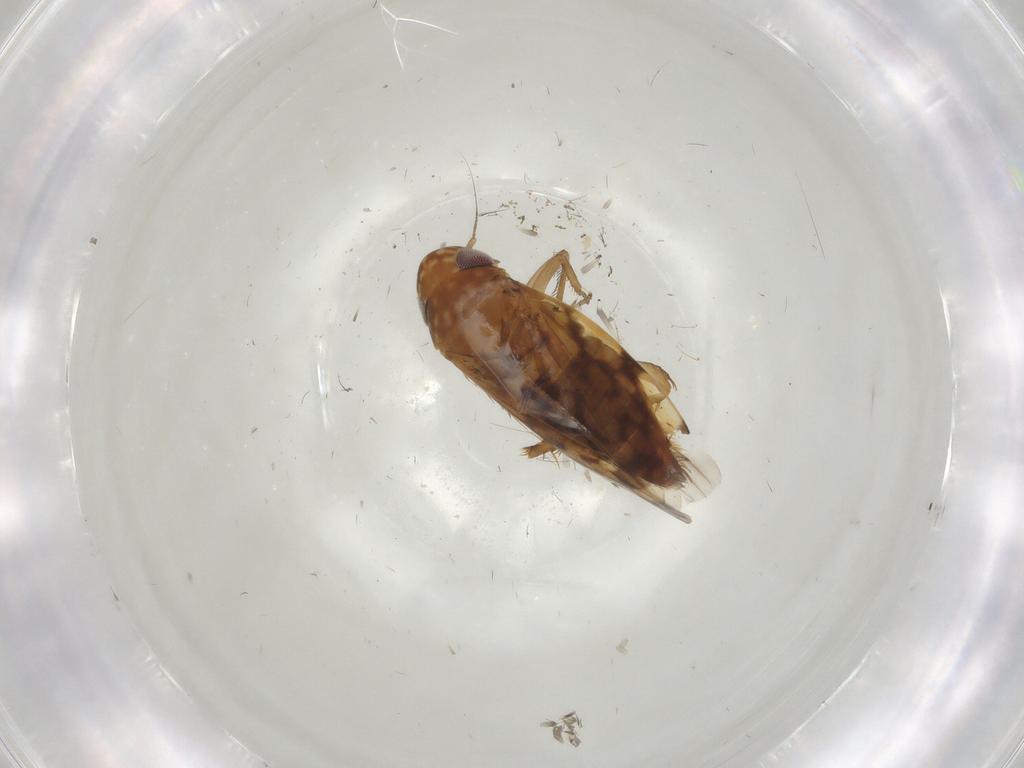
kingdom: Animalia
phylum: Arthropoda
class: Insecta
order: Hemiptera
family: Cicadellidae
